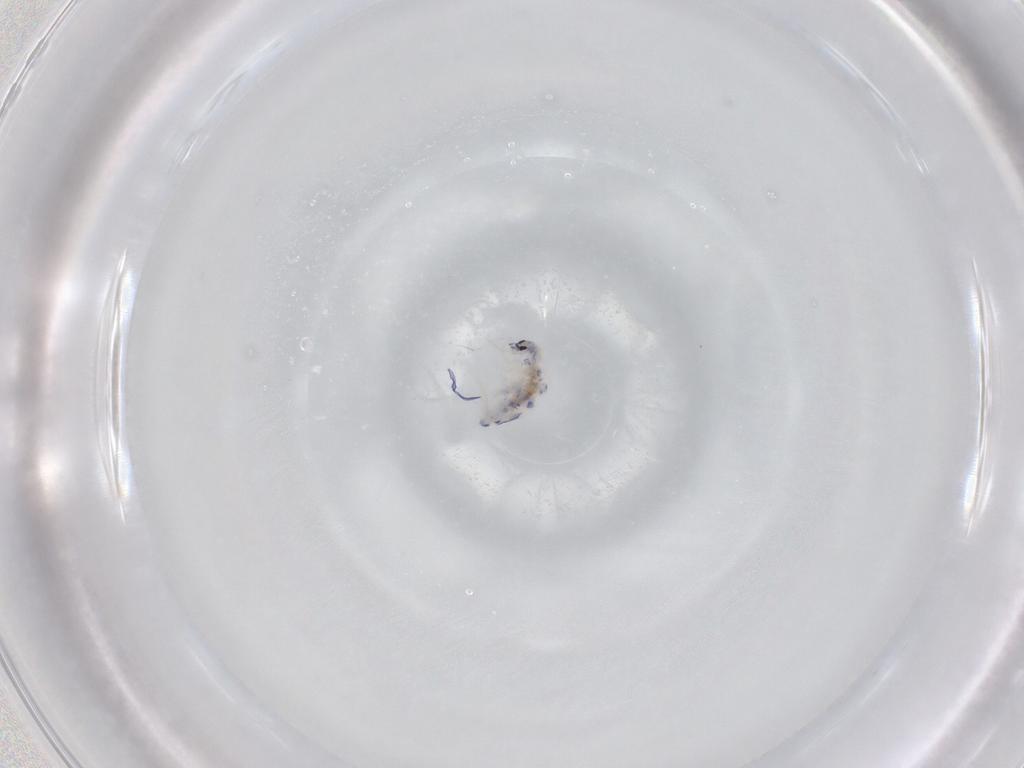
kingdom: Animalia
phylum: Arthropoda
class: Collembola
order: Entomobryomorpha
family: Entomobryidae
